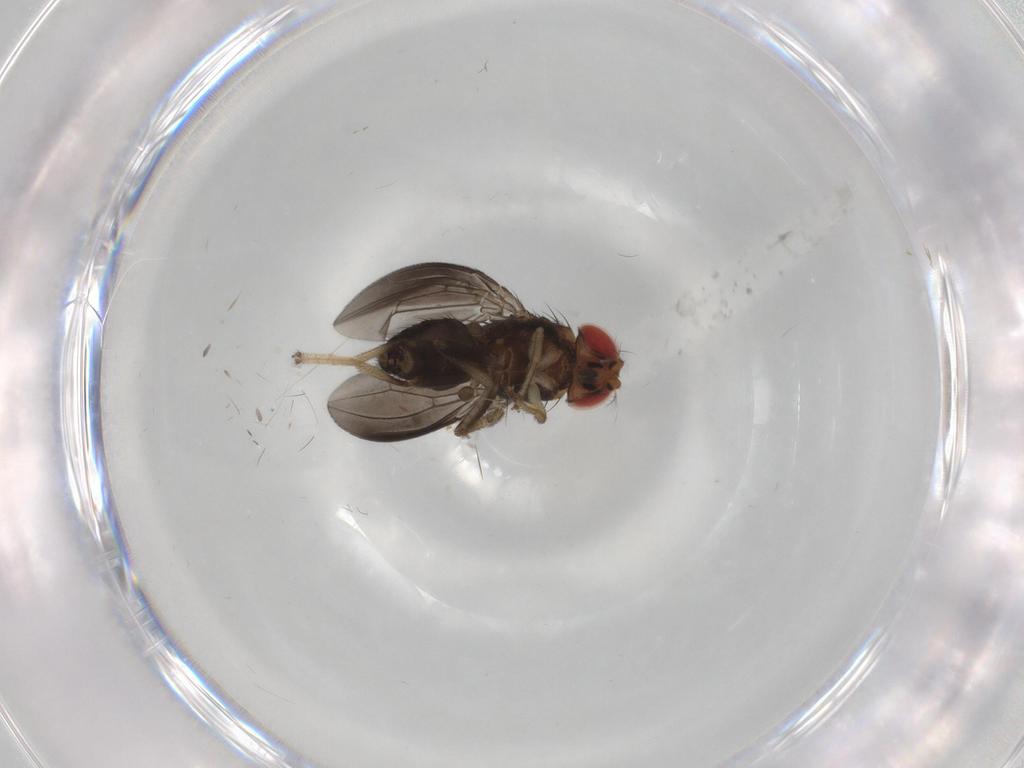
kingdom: Animalia
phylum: Arthropoda
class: Insecta
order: Diptera
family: Drosophilidae
